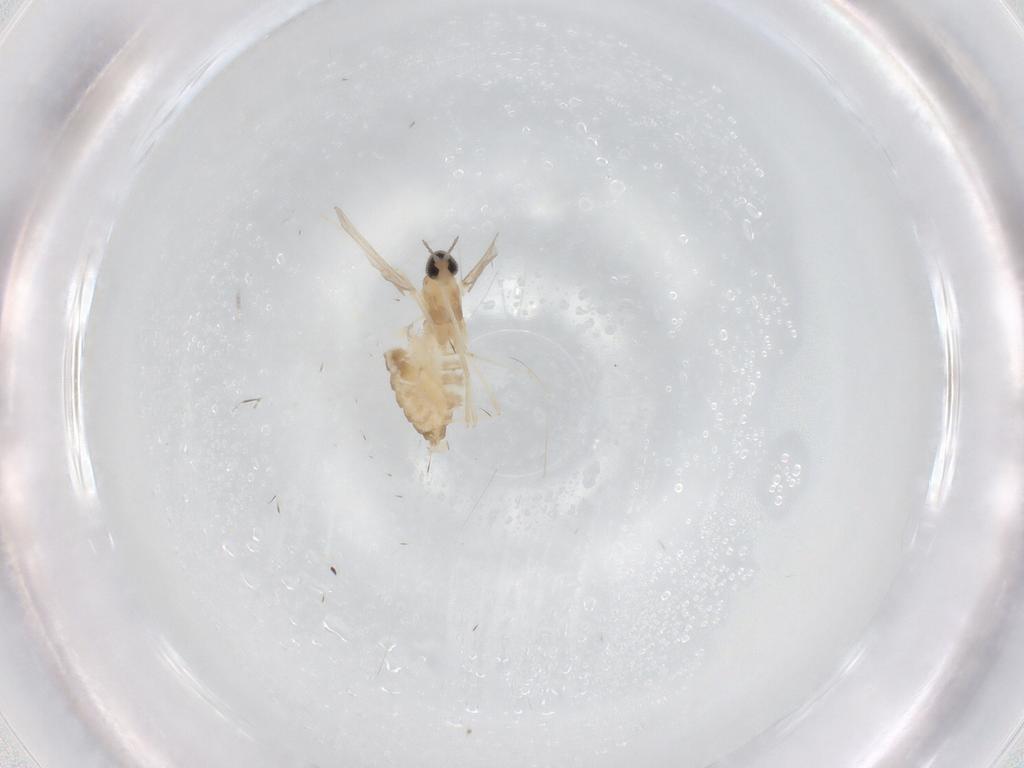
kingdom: Animalia
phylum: Arthropoda
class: Insecta
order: Diptera
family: Cecidomyiidae
